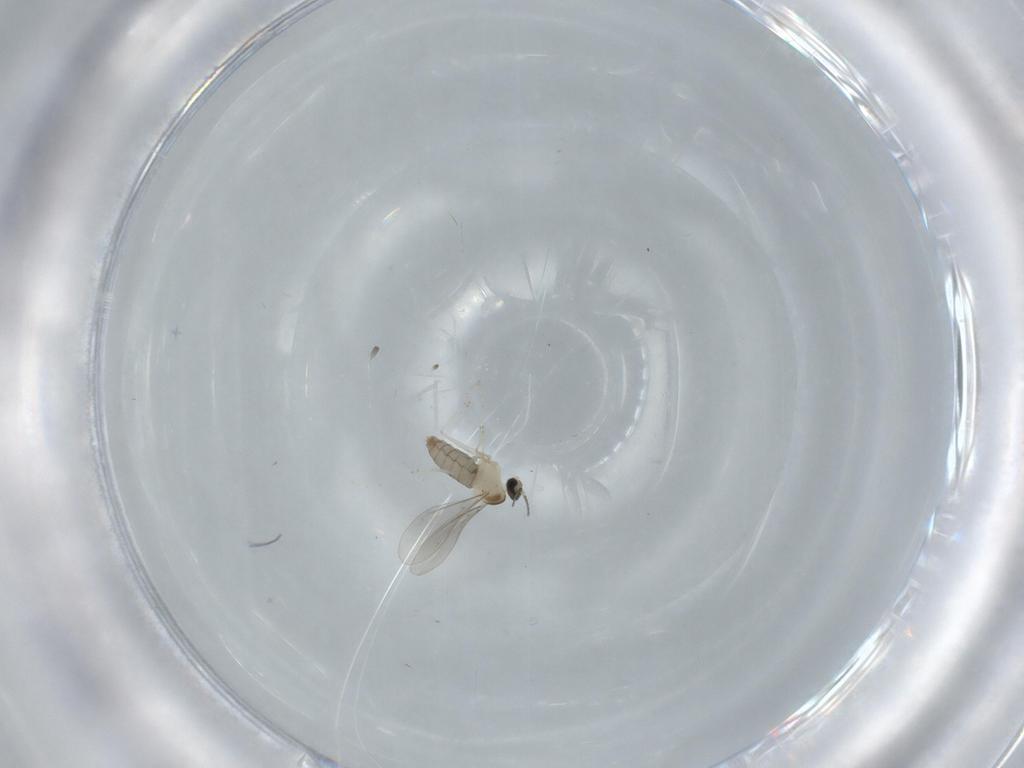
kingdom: Animalia
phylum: Arthropoda
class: Insecta
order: Diptera
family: Cecidomyiidae
